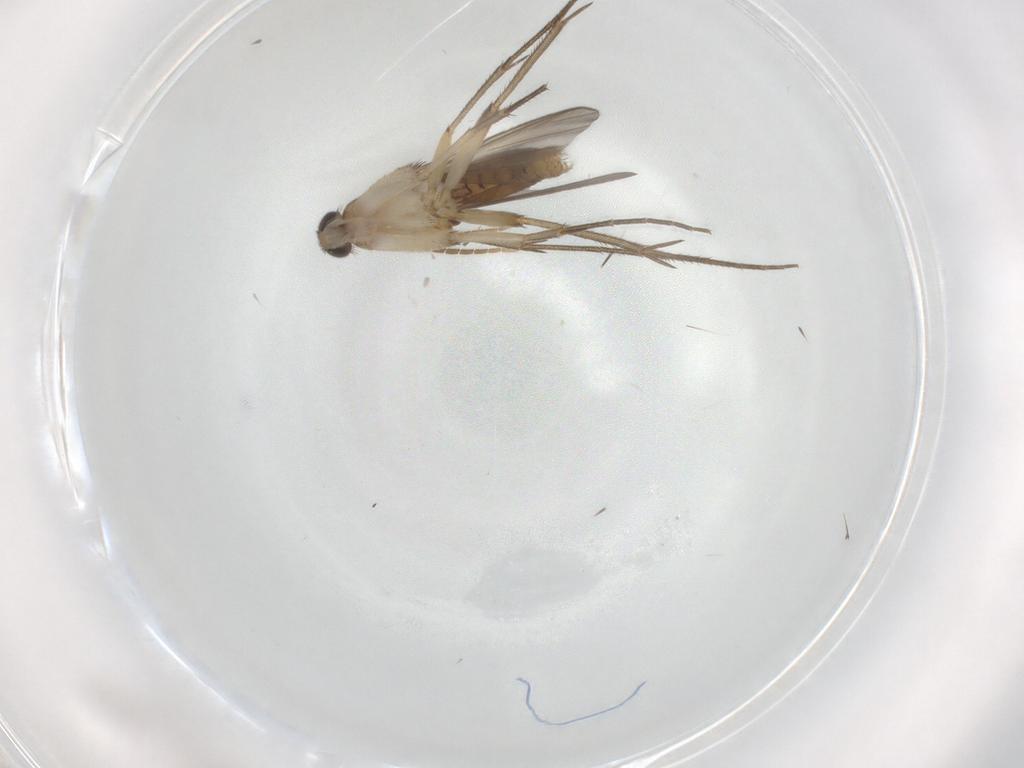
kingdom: Animalia
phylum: Arthropoda
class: Insecta
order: Diptera
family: Mycetophilidae
